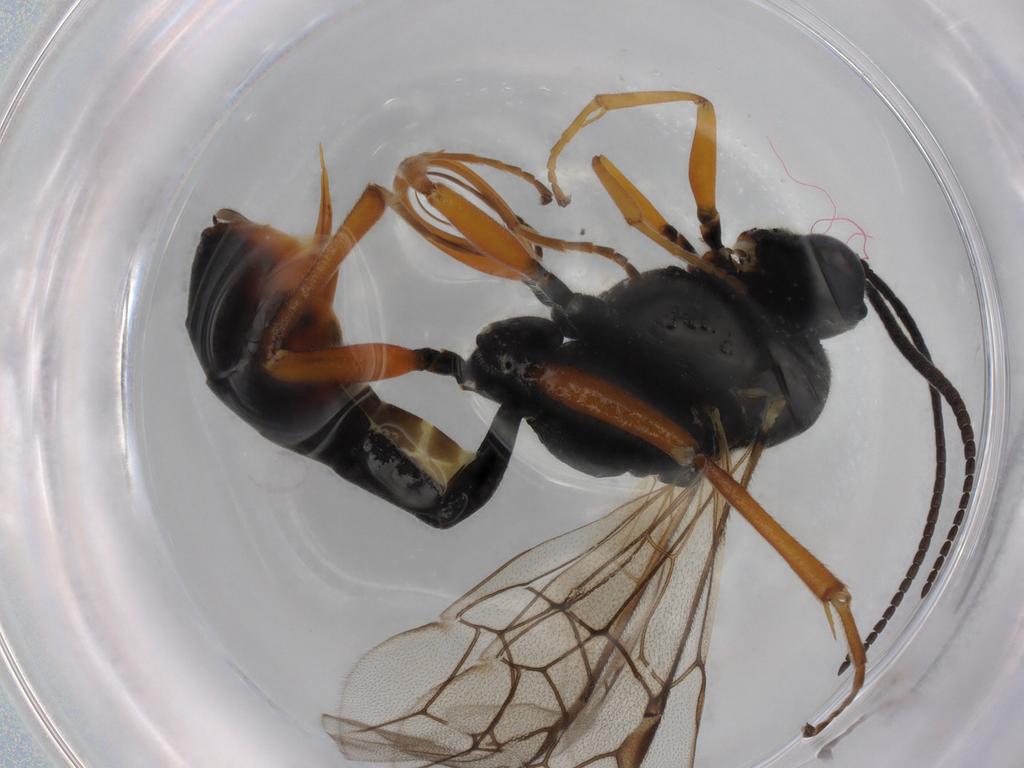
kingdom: Animalia
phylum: Arthropoda
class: Insecta
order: Hymenoptera
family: Ichneumonidae
